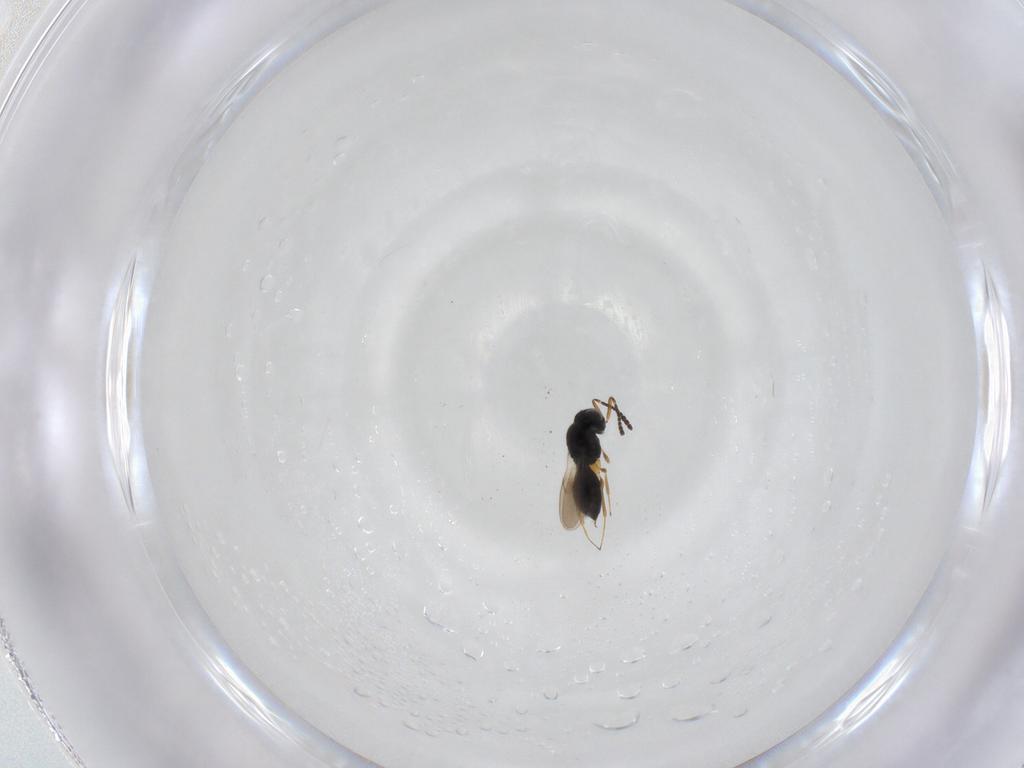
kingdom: Animalia
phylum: Arthropoda
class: Insecta
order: Hymenoptera
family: Scelionidae
